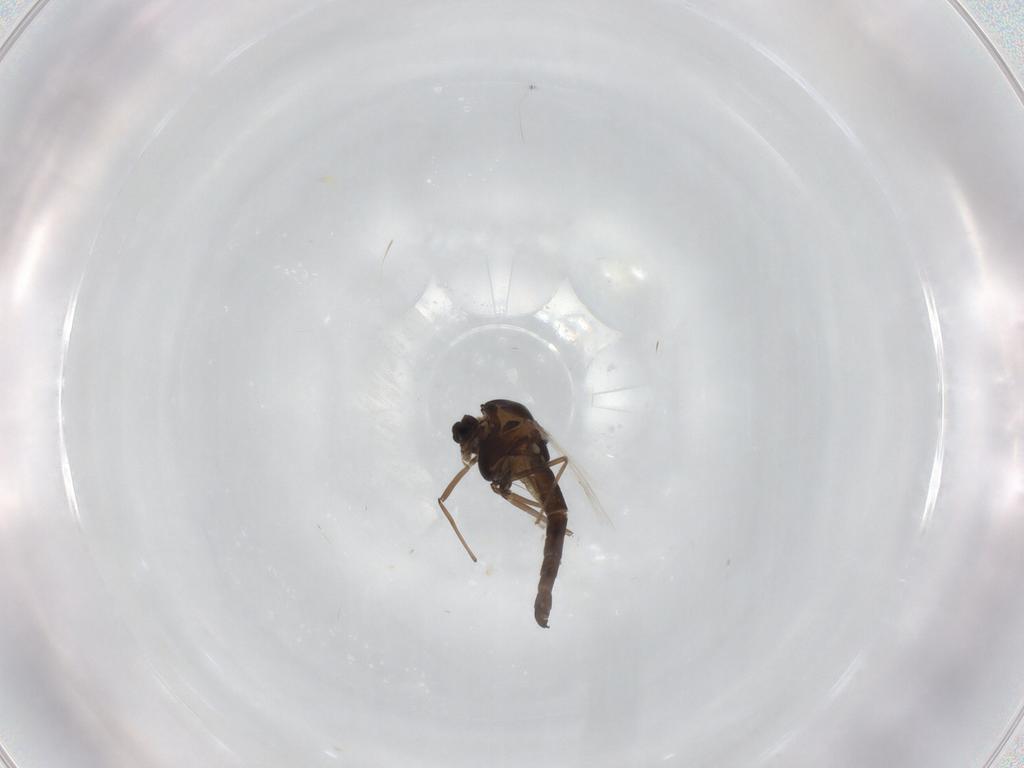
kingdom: Animalia
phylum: Arthropoda
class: Insecta
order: Diptera
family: Chironomidae
